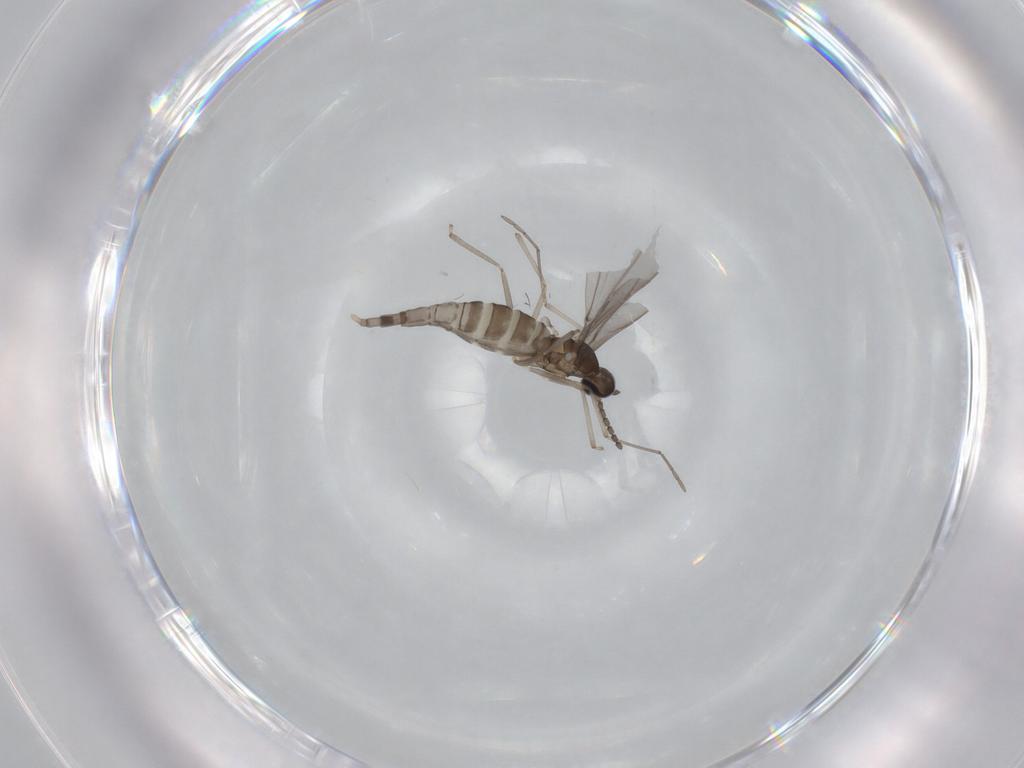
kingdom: Animalia
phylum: Arthropoda
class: Insecta
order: Diptera
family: Cecidomyiidae
